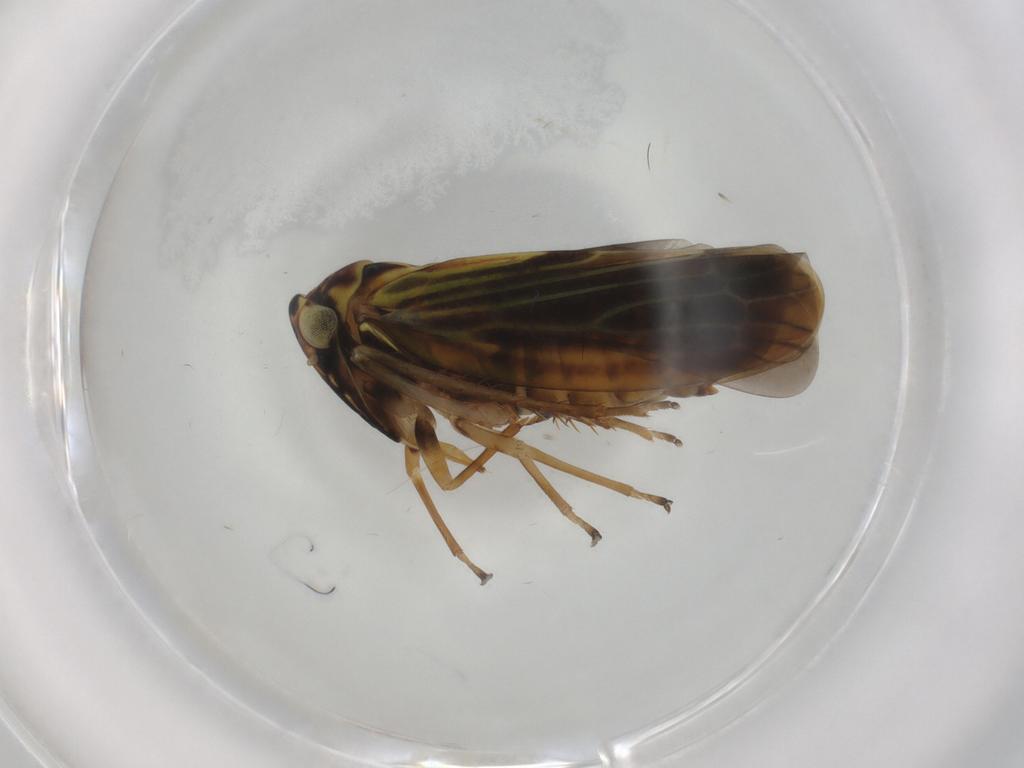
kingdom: Animalia
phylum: Arthropoda
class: Insecta
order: Hemiptera
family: Cicadellidae
